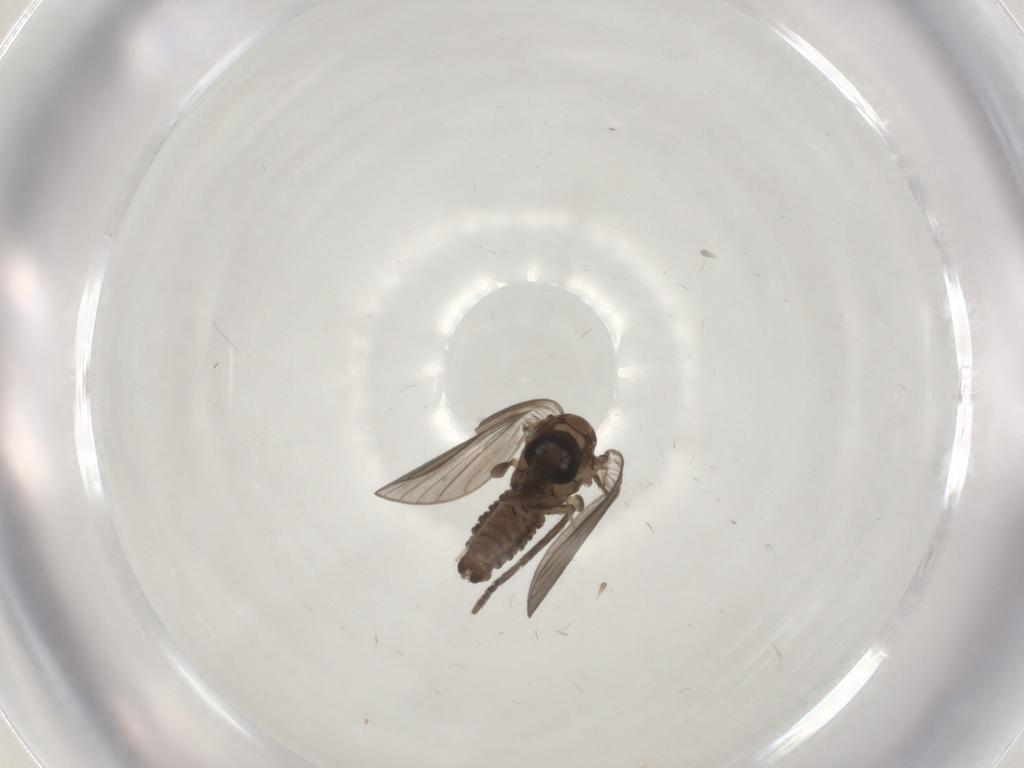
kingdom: Animalia
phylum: Arthropoda
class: Insecta
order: Diptera
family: Psychodidae
